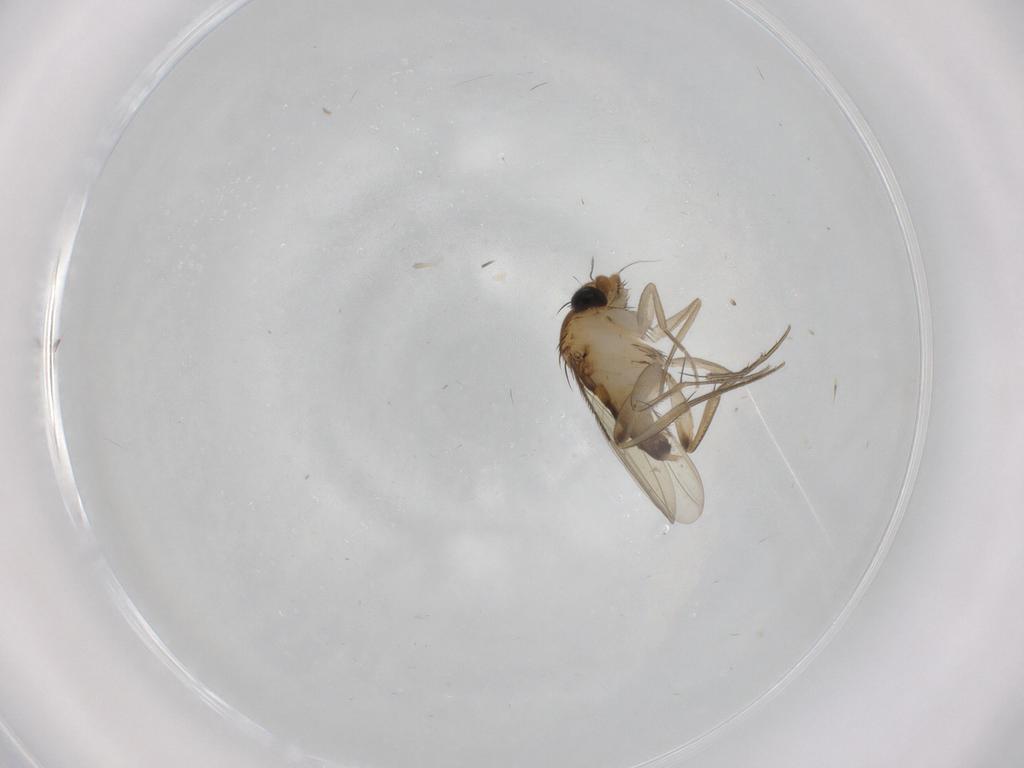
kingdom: Animalia
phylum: Arthropoda
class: Insecta
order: Diptera
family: Phoridae
